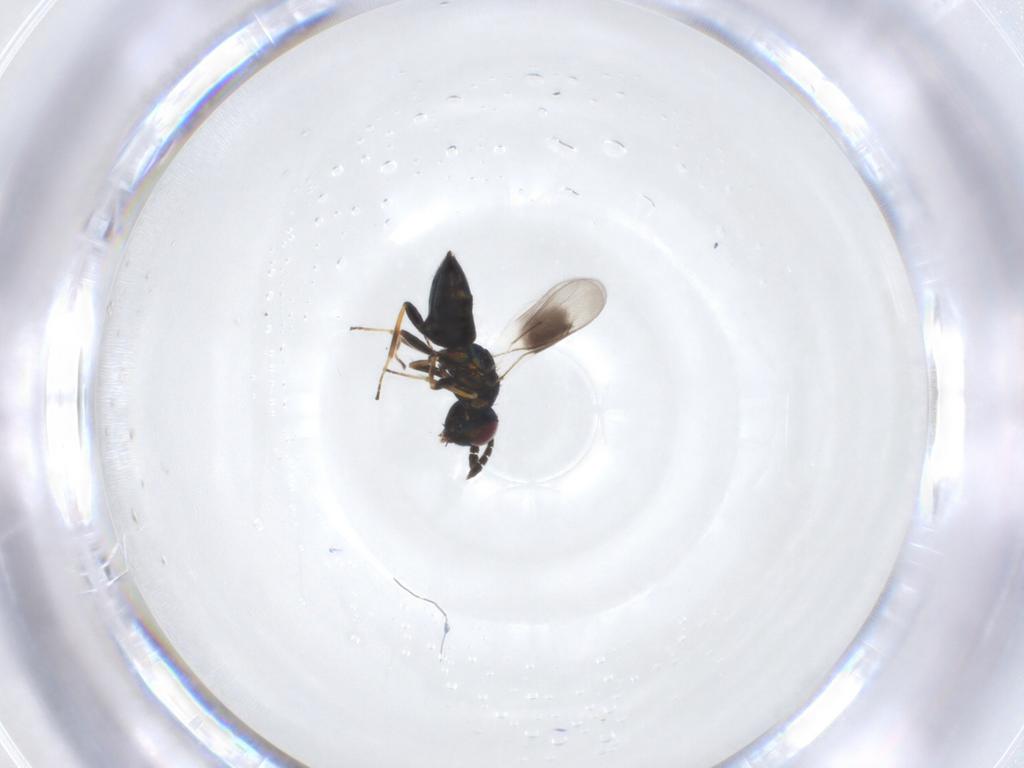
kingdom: Animalia
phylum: Arthropoda
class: Insecta
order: Hymenoptera
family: Eulophidae
